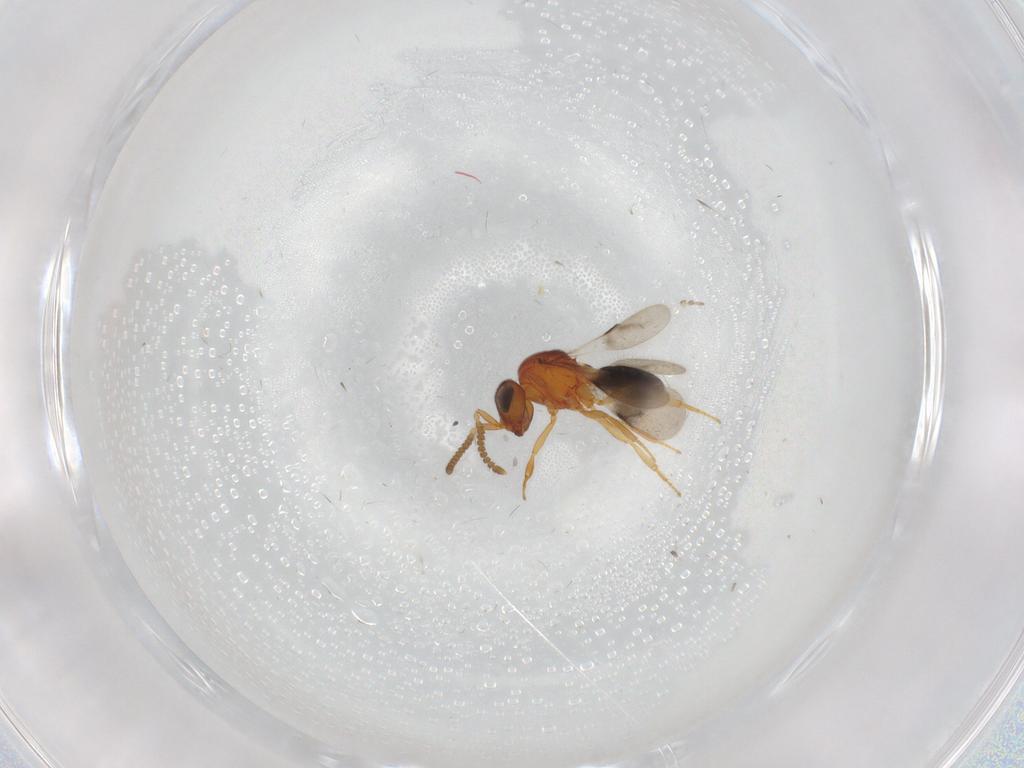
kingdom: Animalia
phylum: Arthropoda
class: Insecta
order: Hymenoptera
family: Scelionidae
